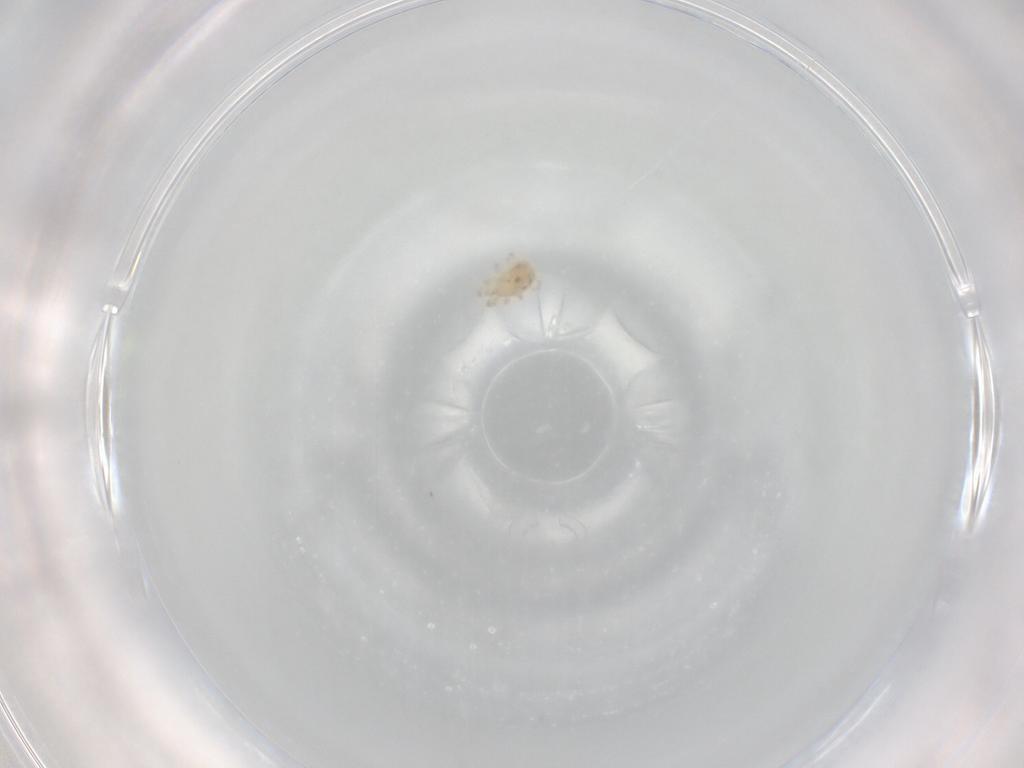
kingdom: Animalia
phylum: Arthropoda
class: Arachnida
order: Mesostigmata
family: Phytoseiidae
